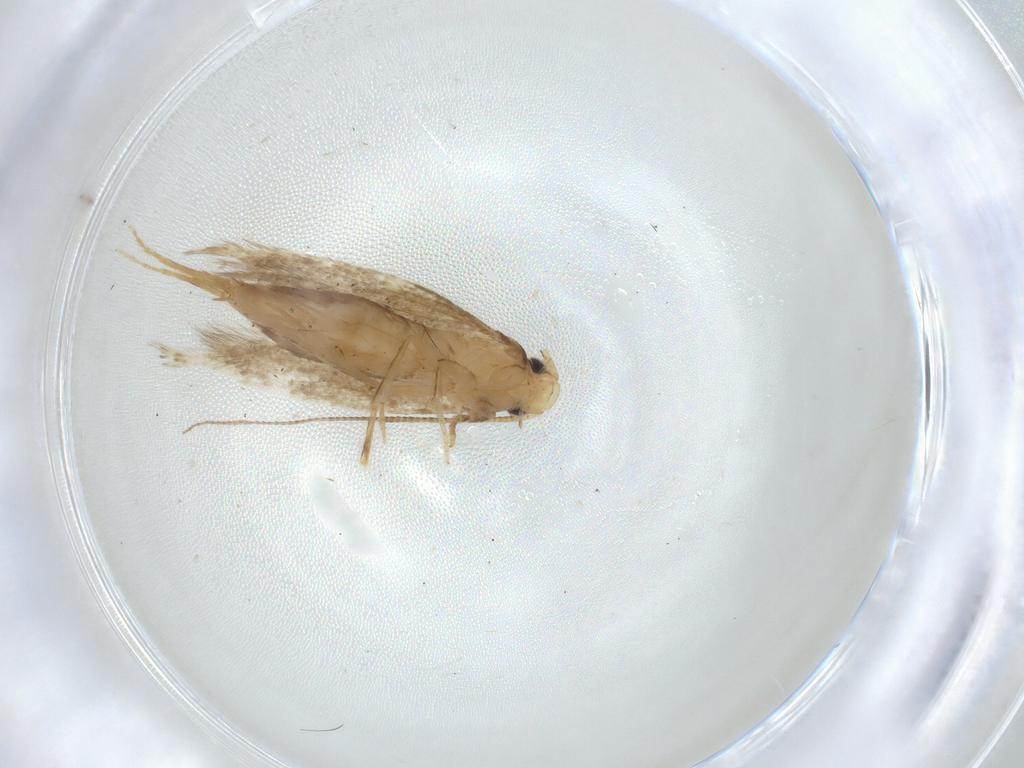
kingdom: Animalia
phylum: Arthropoda
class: Insecta
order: Lepidoptera
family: Tineidae
